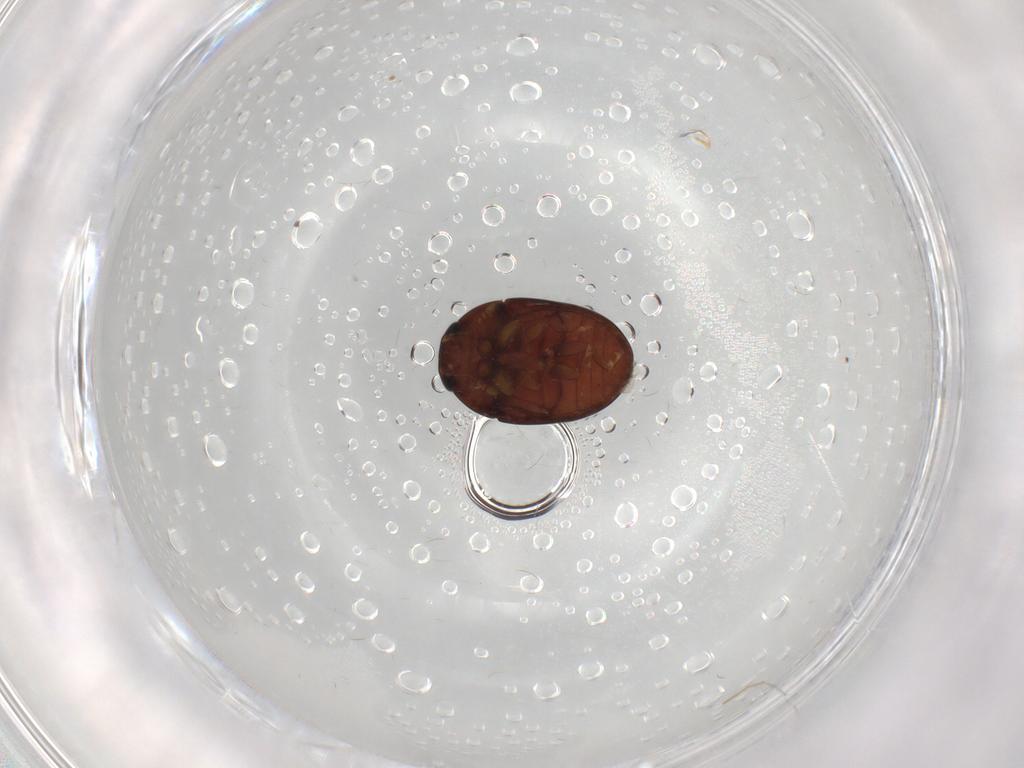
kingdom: Animalia
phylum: Arthropoda
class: Insecta
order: Coleoptera
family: Phalacridae
